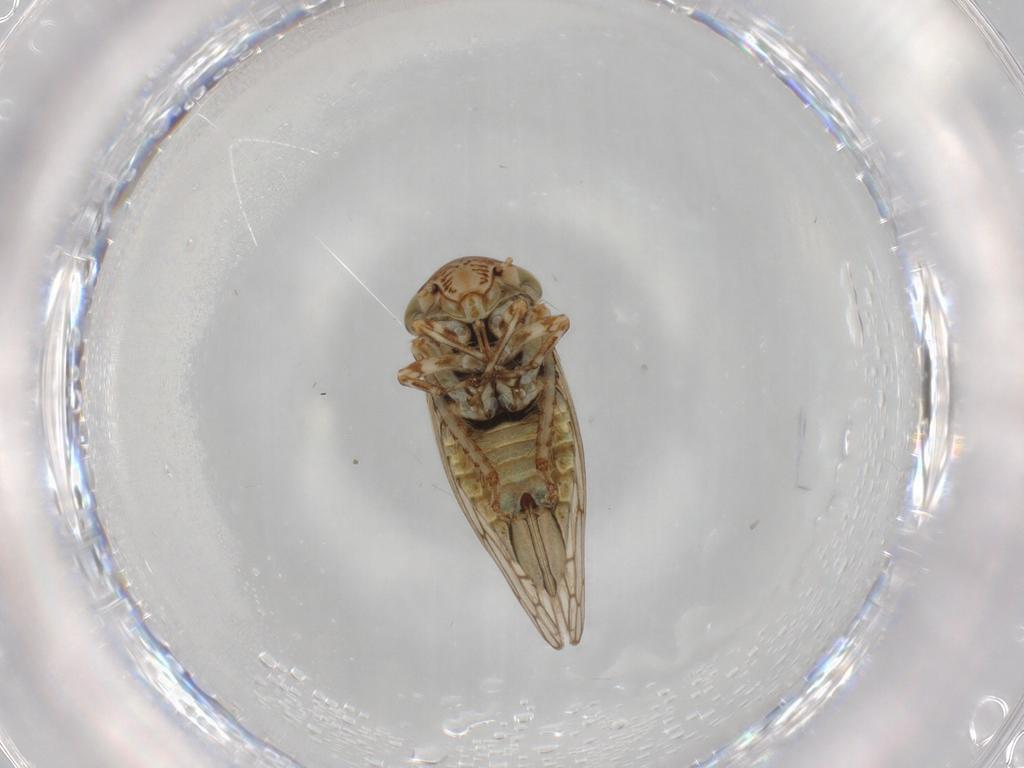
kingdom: Animalia
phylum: Arthropoda
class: Insecta
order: Hemiptera
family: Cicadellidae
